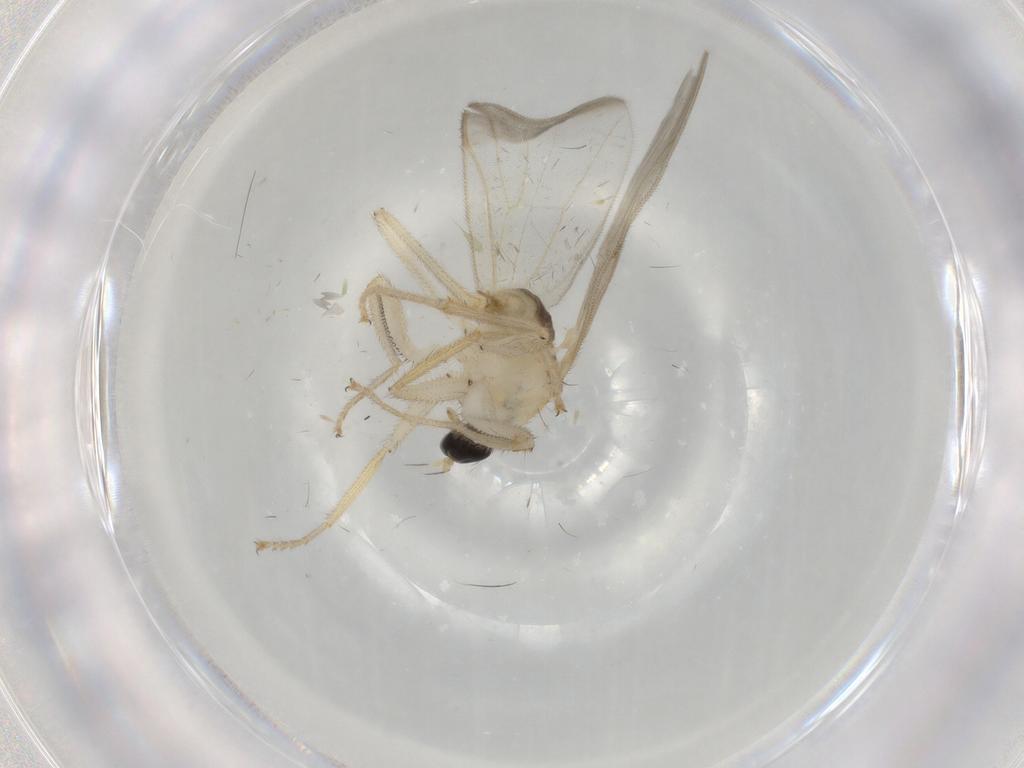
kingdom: Animalia
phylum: Arthropoda
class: Insecta
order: Diptera
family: Hybotidae
